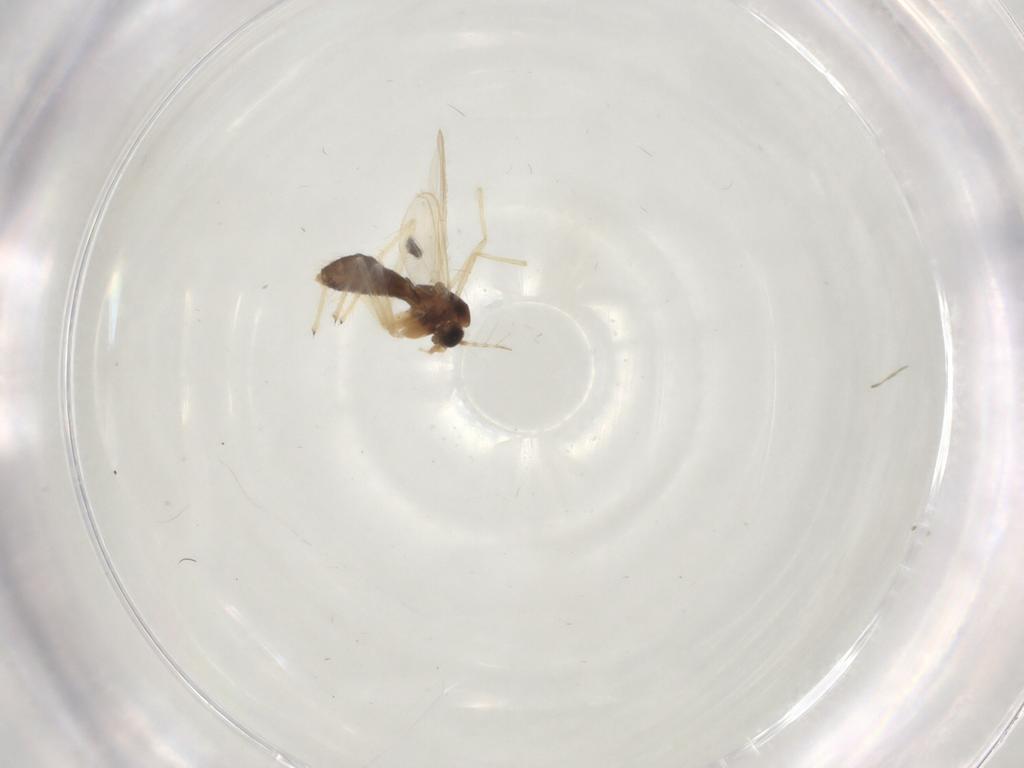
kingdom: Animalia
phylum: Arthropoda
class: Insecta
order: Diptera
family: Chironomidae
